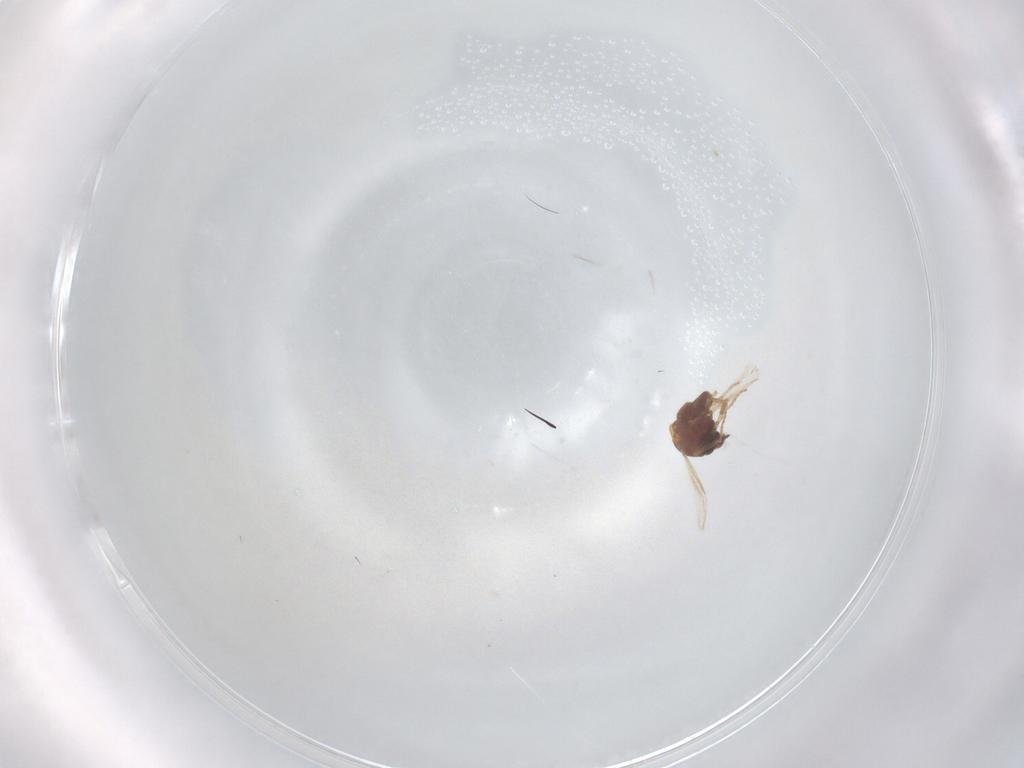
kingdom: Animalia
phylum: Arthropoda
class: Insecta
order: Diptera
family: Ceratopogonidae
